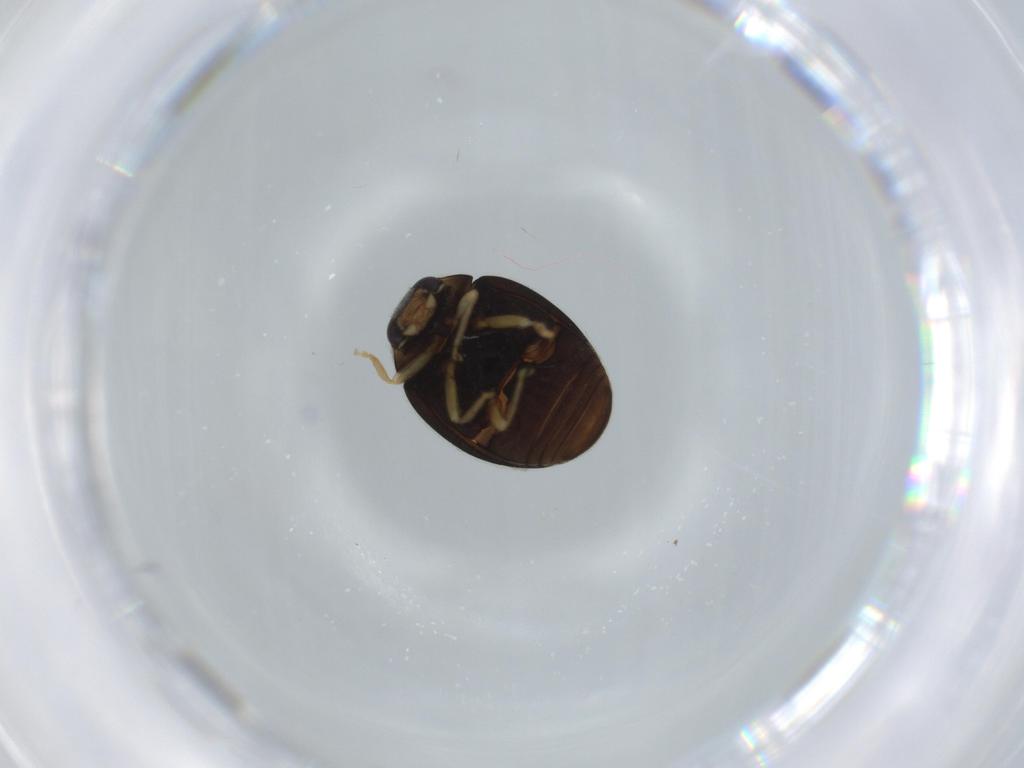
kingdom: Animalia
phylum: Arthropoda
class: Insecta
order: Coleoptera
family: Coccinellidae
